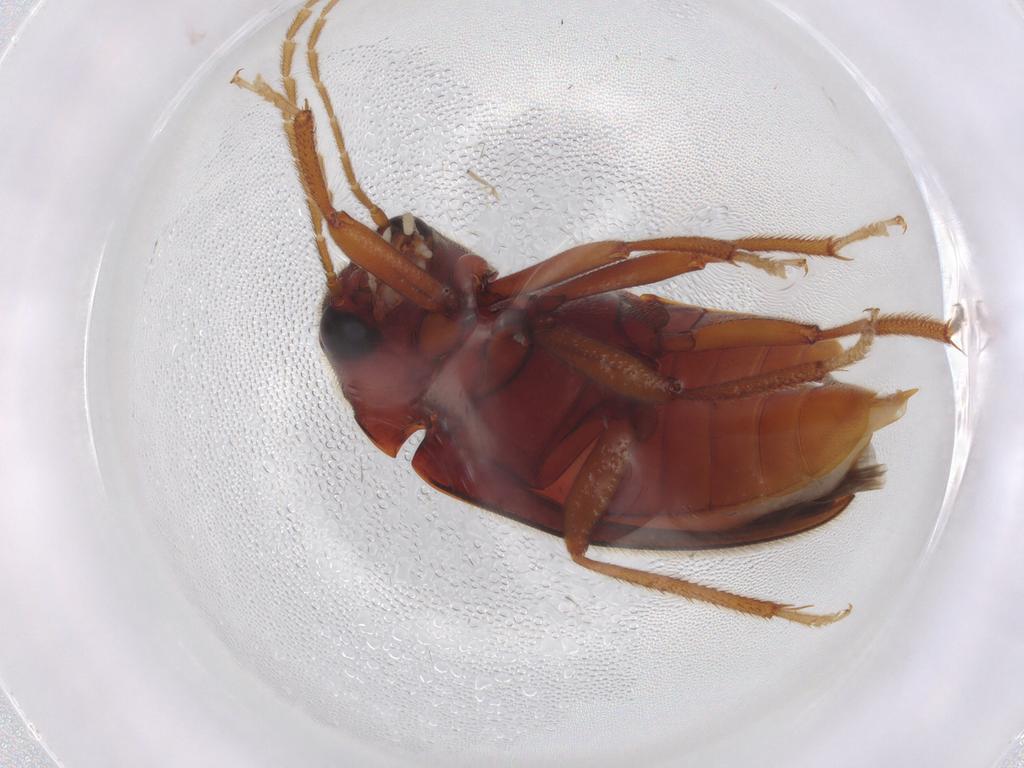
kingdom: Animalia
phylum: Arthropoda
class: Insecta
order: Coleoptera
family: Ptilodactylidae
